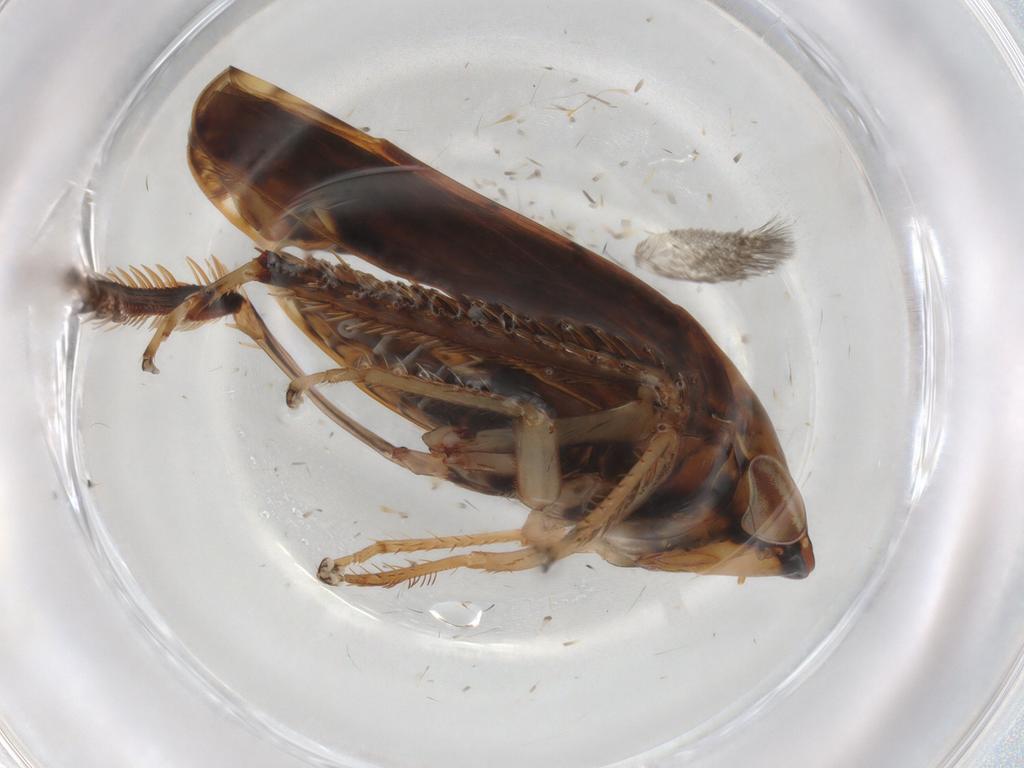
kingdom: Animalia
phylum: Arthropoda
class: Insecta
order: Hemiptera
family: Cicadellidae
